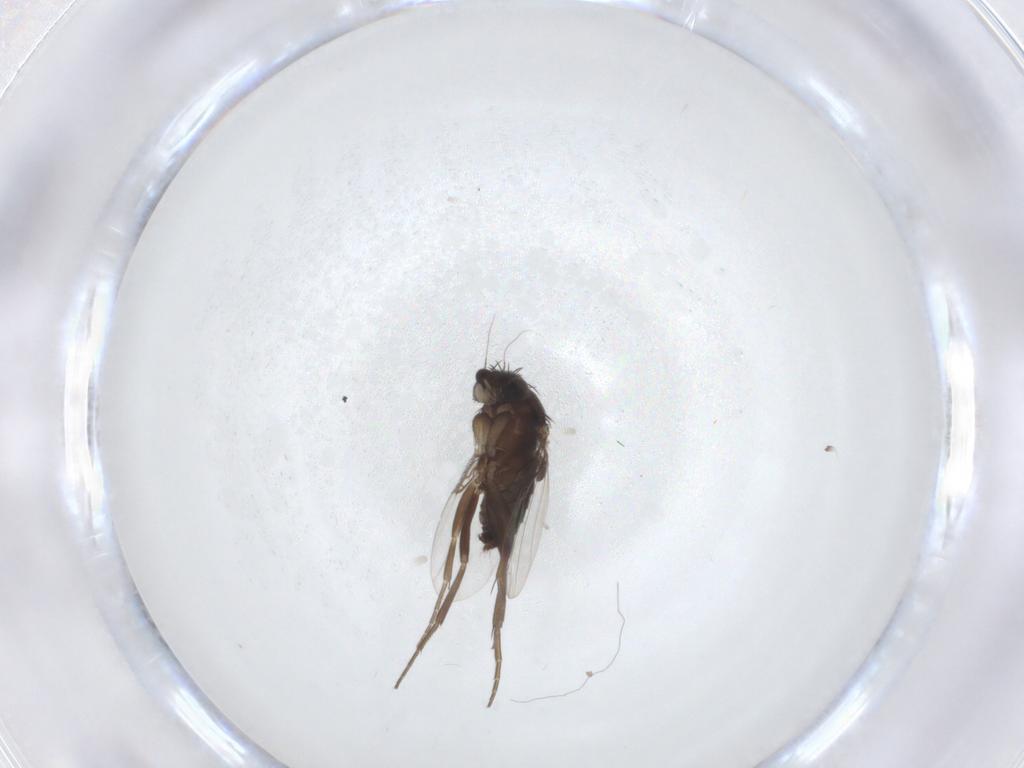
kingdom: Animalia
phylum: Arthropoda
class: Insecta
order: Diptera
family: Phoridae
